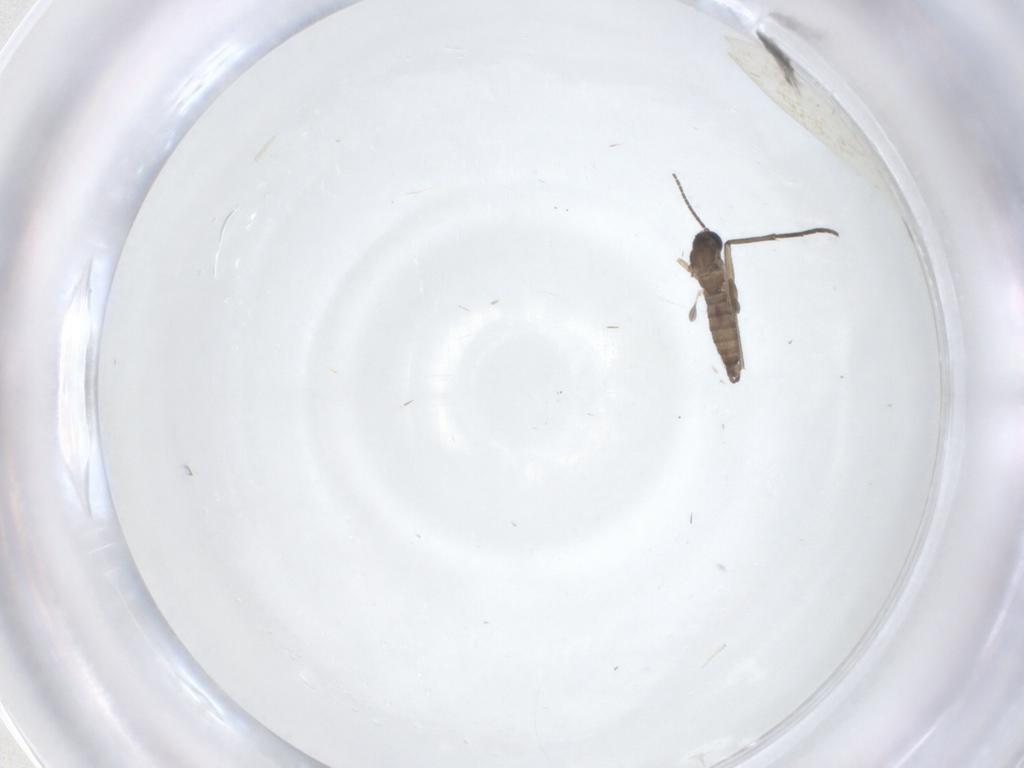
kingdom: Animalia
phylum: Arthropoda
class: Insecta
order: Diptera
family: Sciaridae
